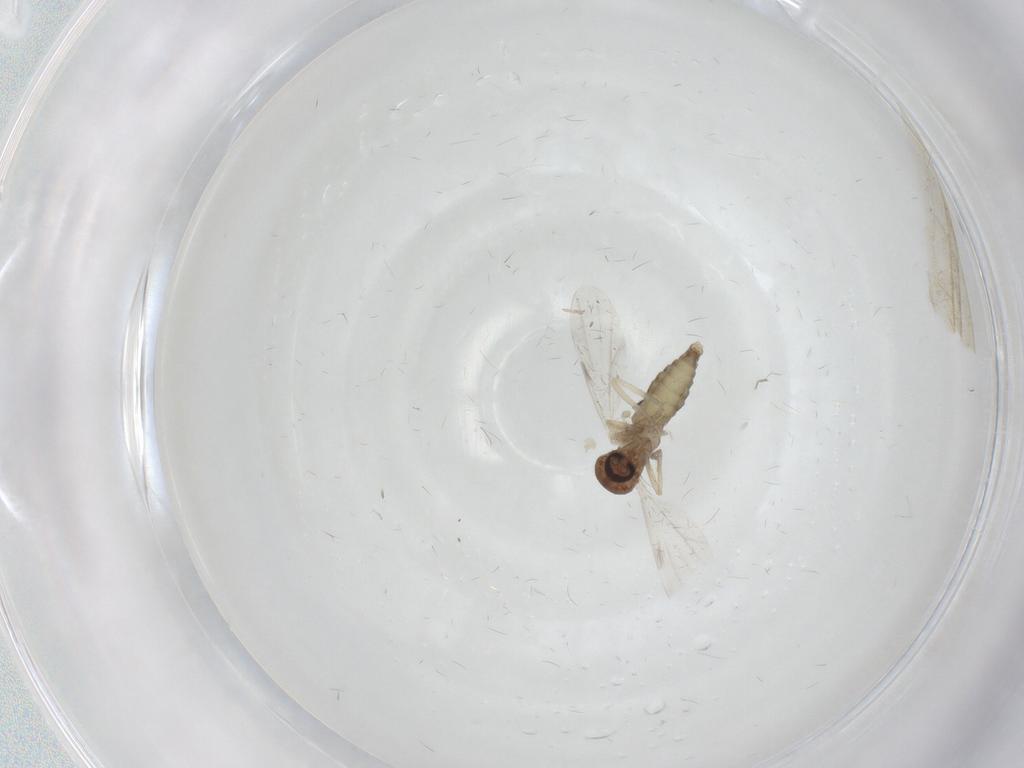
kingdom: Animalia
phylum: Arthropoda
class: Insecta
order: Diptera
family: Ceratopogonidae
